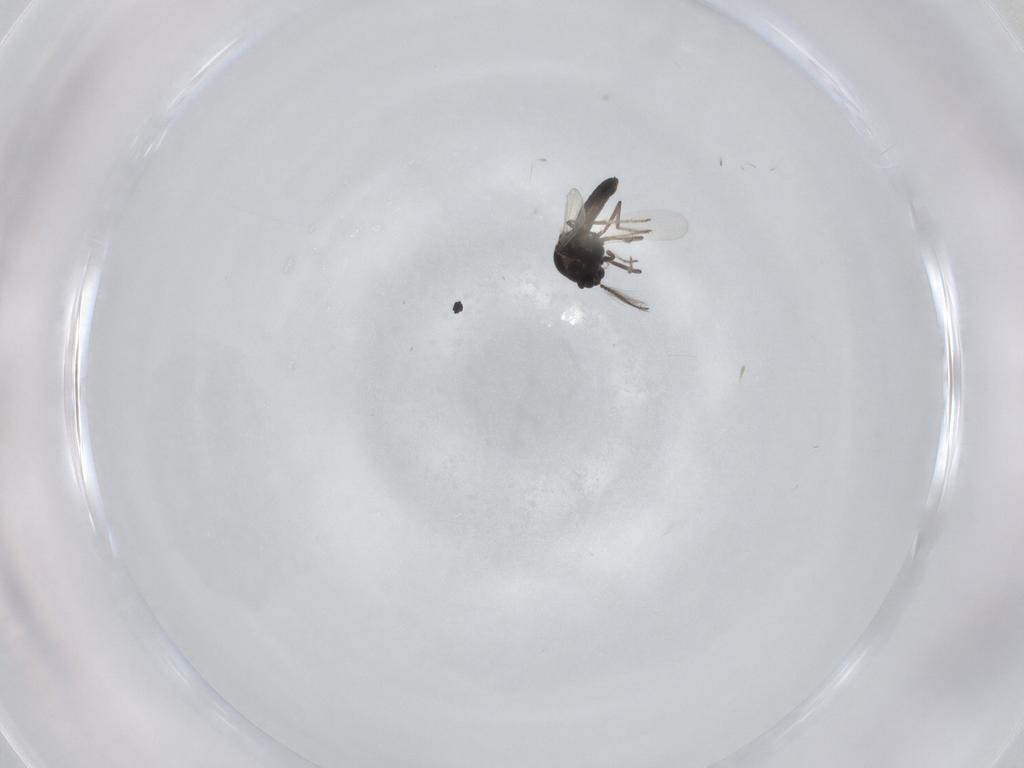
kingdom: Animalia
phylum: Arthropoda
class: Insecta
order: Diptera
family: Ceratopogonidae
